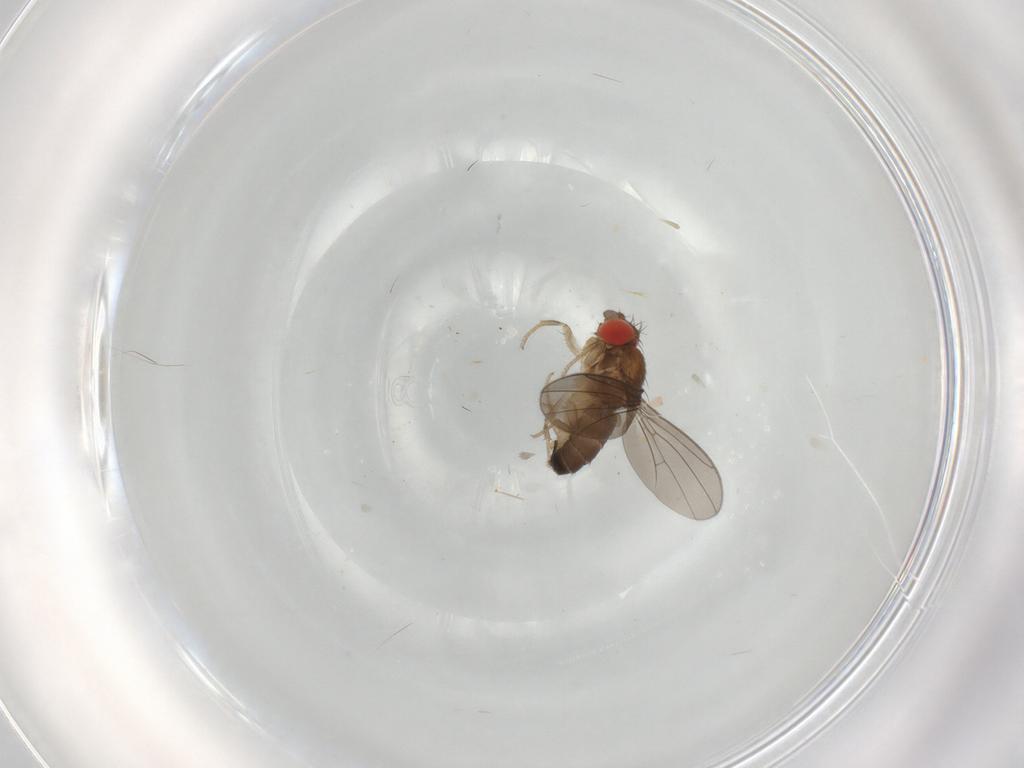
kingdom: Animalia
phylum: Arthropoda
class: Insecta
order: Diptera
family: Drosophilidae
